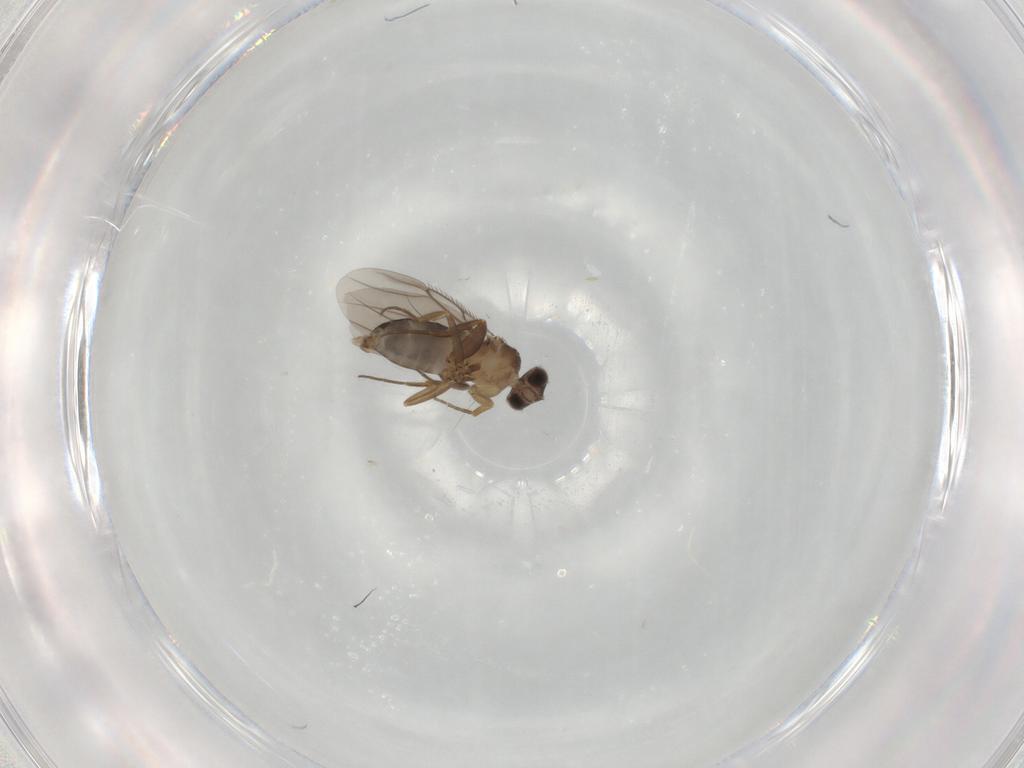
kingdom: Animalia
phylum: Arthropoda
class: Insecta
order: Diptera
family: Phoridae
